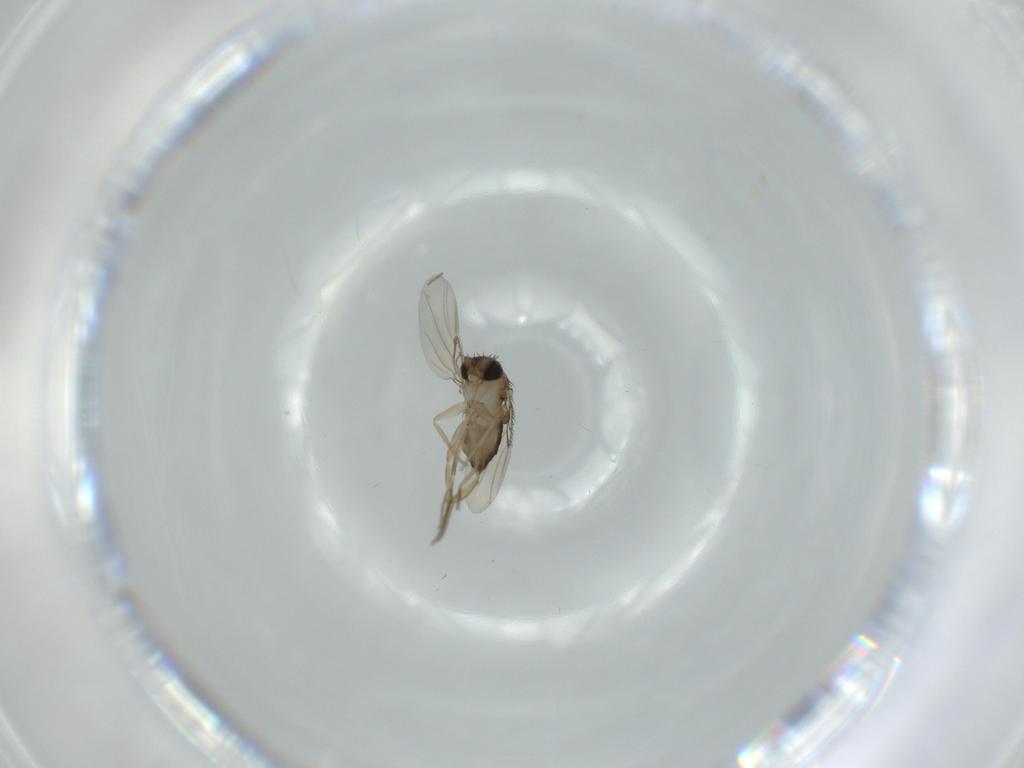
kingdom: Animalia
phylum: Arthropoda
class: Insecta
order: Diptera
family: Phoridae
